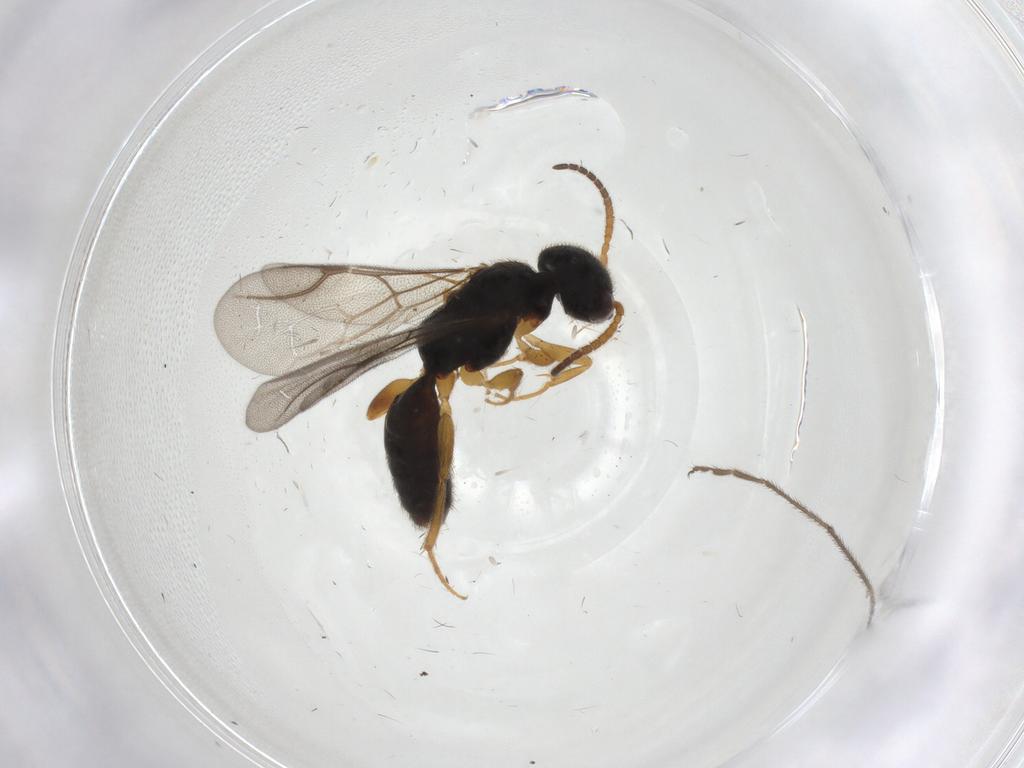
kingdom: Animalia
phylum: Arthropoda
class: Insecta
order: Hymenoptera
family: Bethylidae
